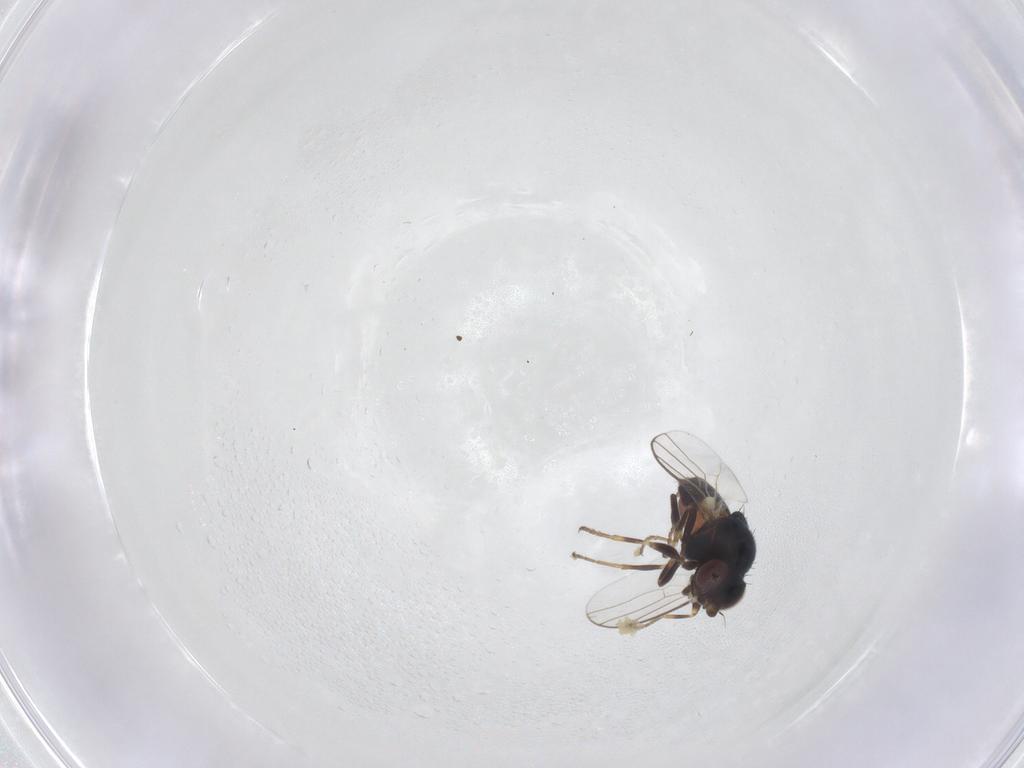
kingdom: Animalia
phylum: Arthropoda
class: Insecta
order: Diptera
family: Chloropidae
